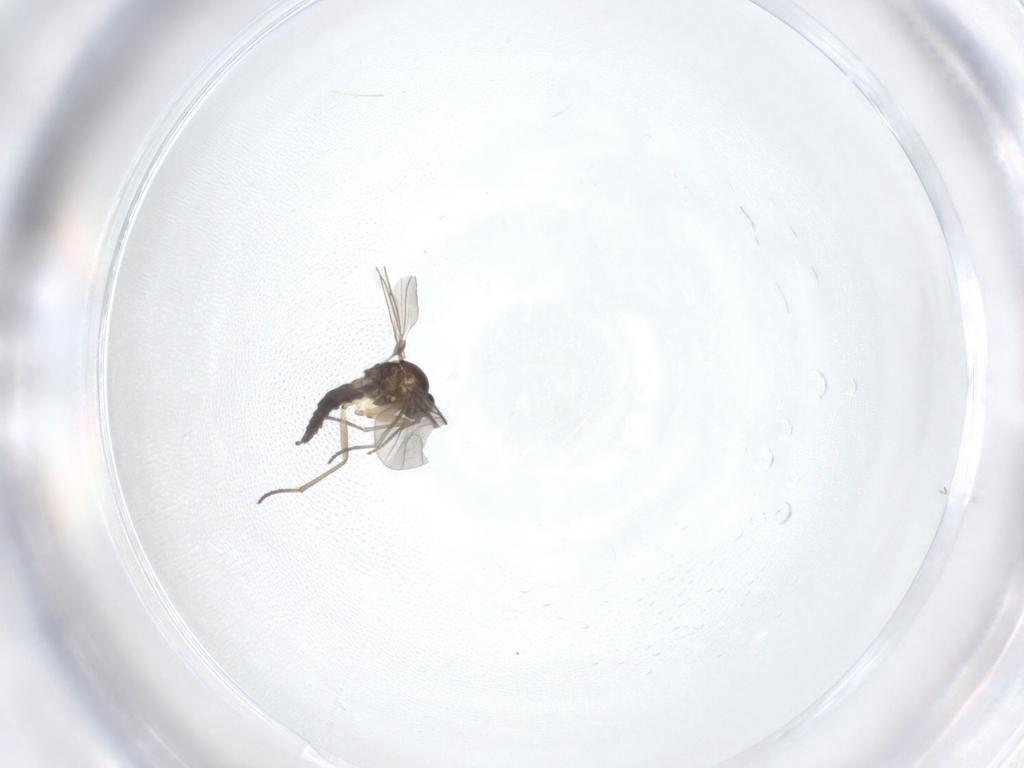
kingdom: Animalia
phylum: Arthropoda
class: Insecta
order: Diptera
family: Sciaridae
